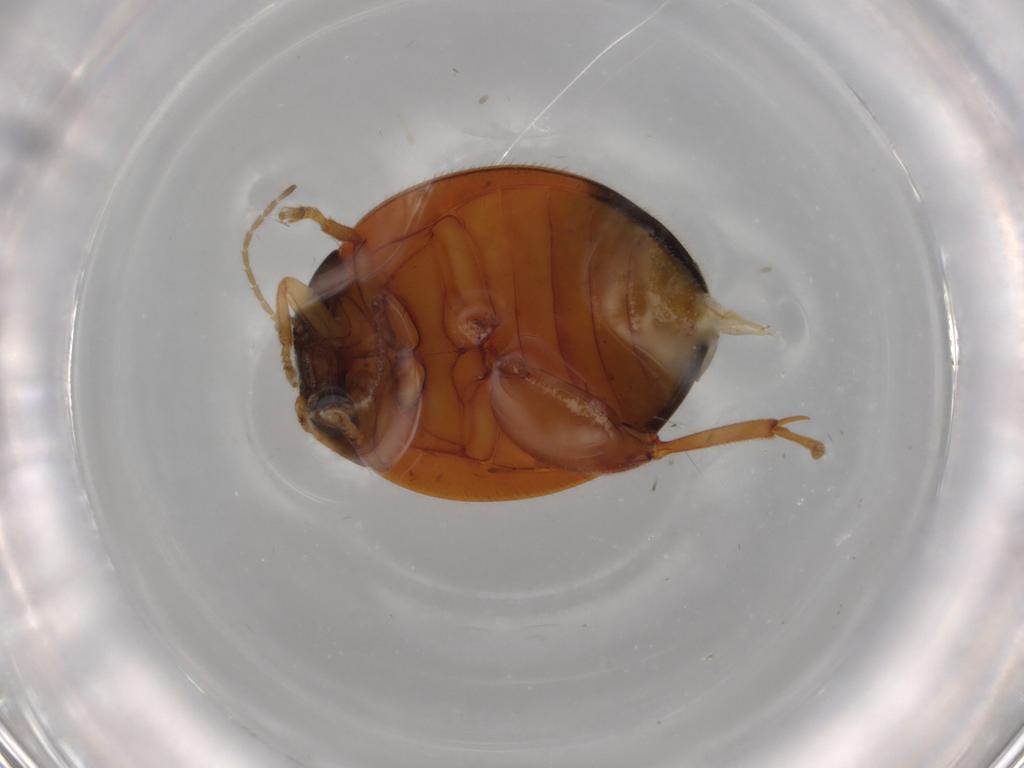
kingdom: Animalia
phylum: Arthropoda
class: Insecta
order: Coleoptera
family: Scirtidae
